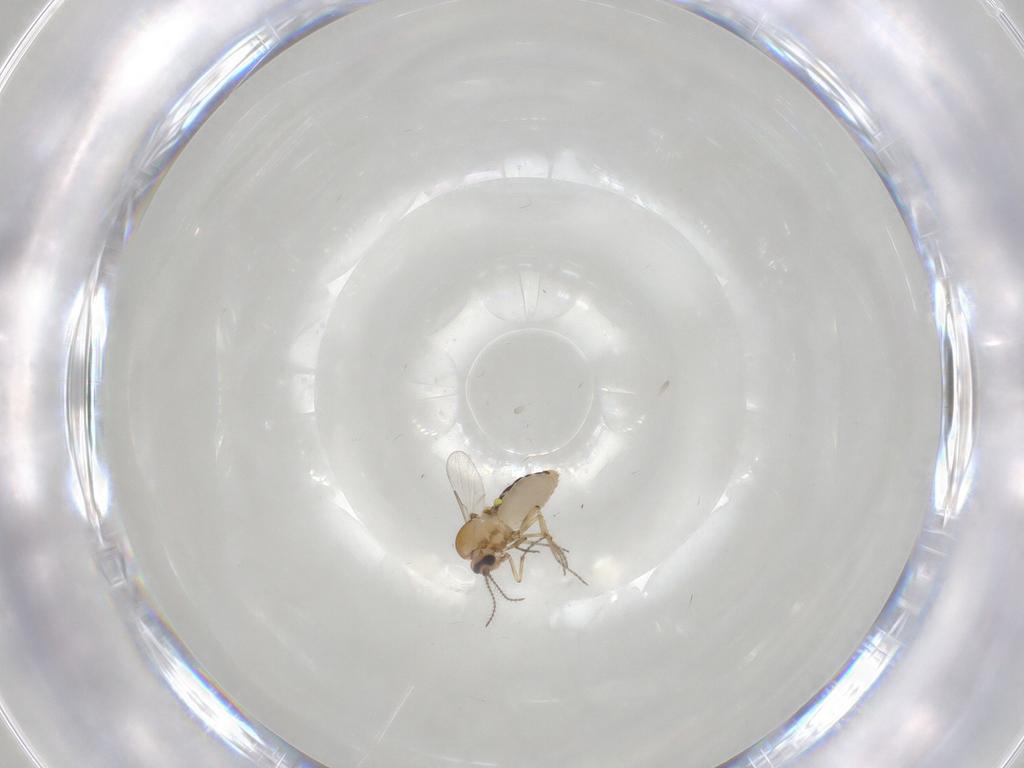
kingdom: Animalia
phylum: Arthropoda
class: Insecta
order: Diptera
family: Ceratopogonidae
